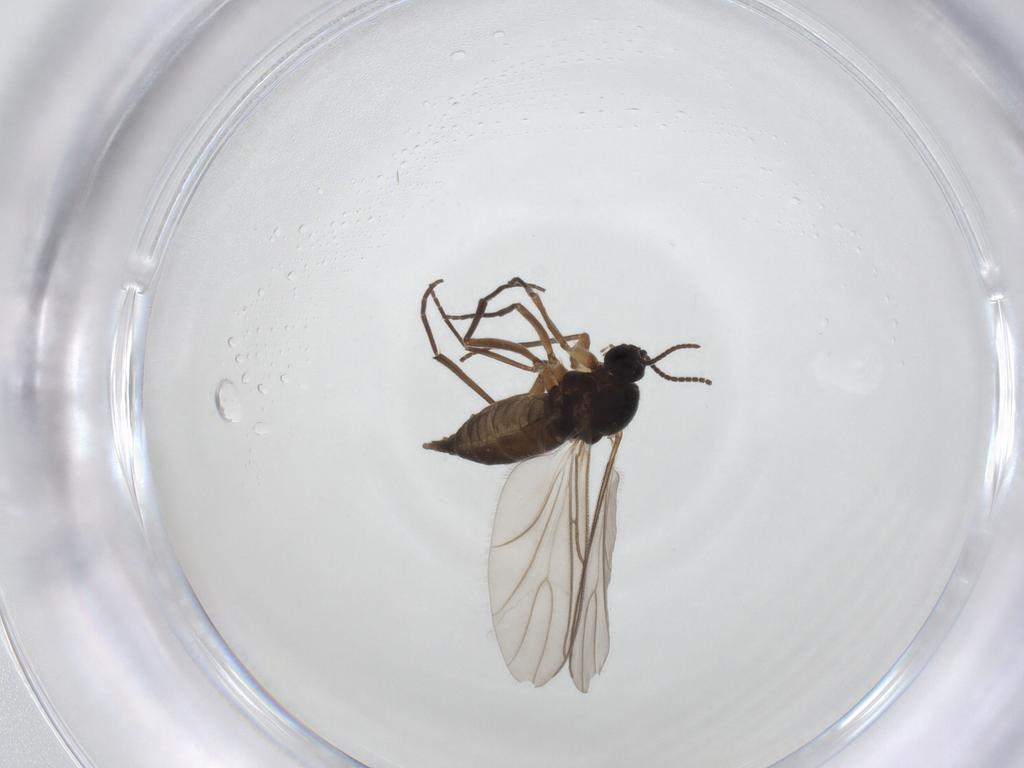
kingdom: Animalia
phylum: Arthropoda
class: Insecta
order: Diptera
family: Sciaridae
